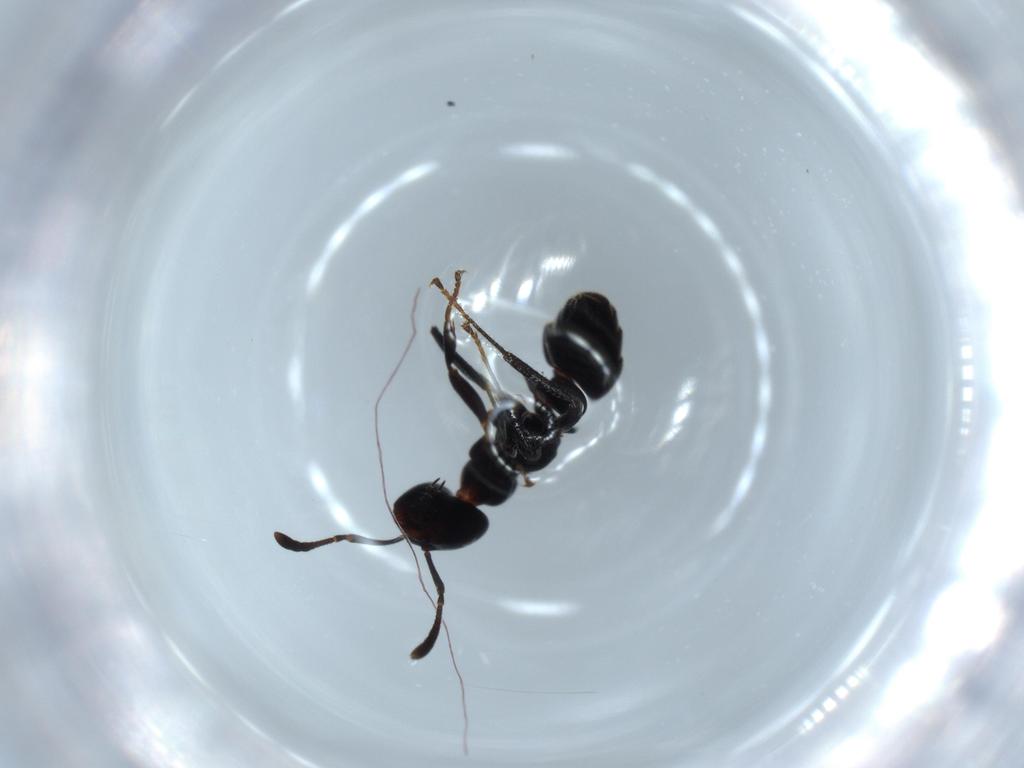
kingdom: Animalia
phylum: Arthropoda
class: Insecta
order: Hymenoptera
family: Formicidae
